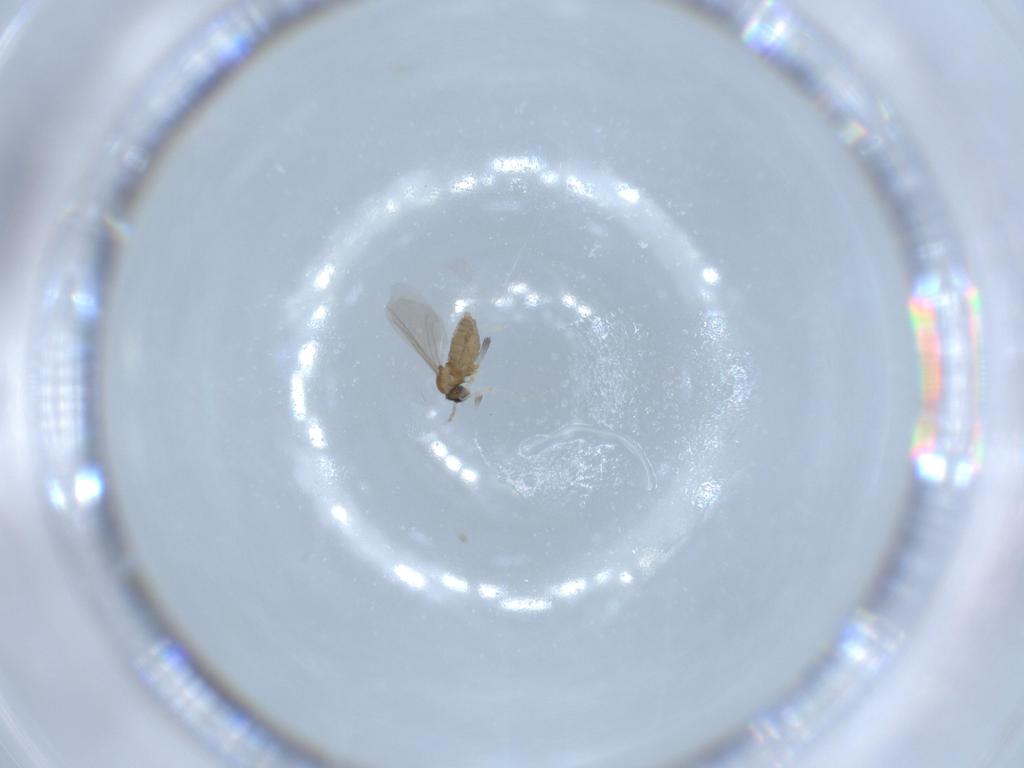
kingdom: Animalia
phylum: Arthropoda
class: Insecta
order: Diptera
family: Cecidomyiidae
